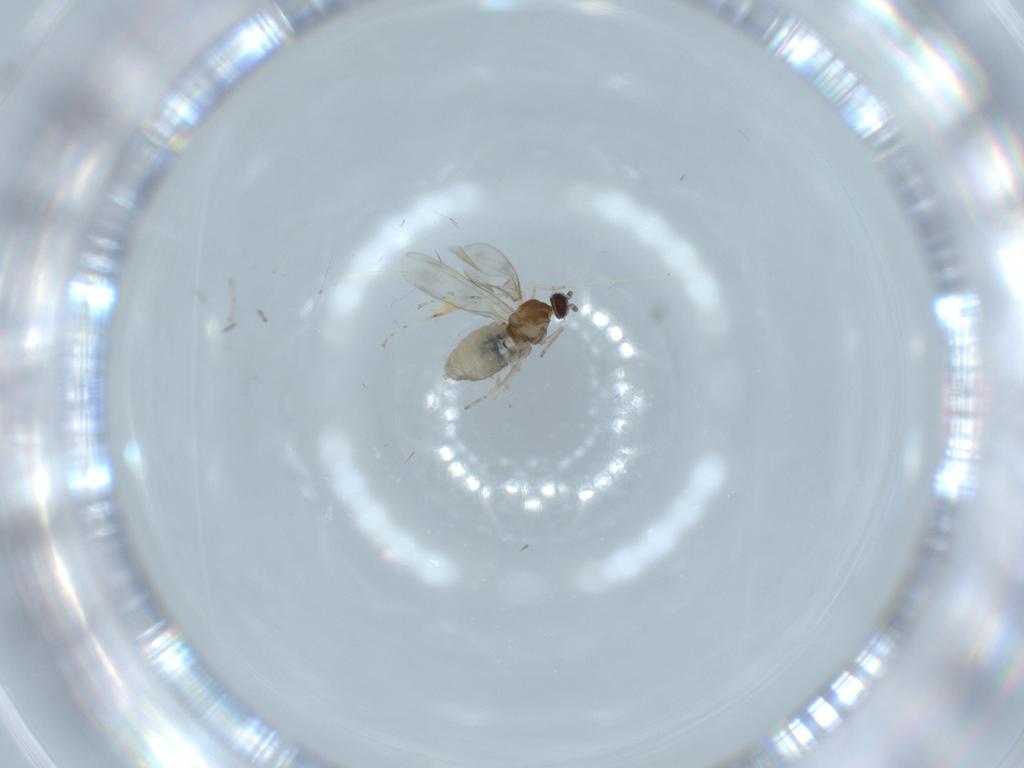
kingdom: Animalia
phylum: Arthropoda
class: Insecta
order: Diptera
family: Cecidomyiidae
